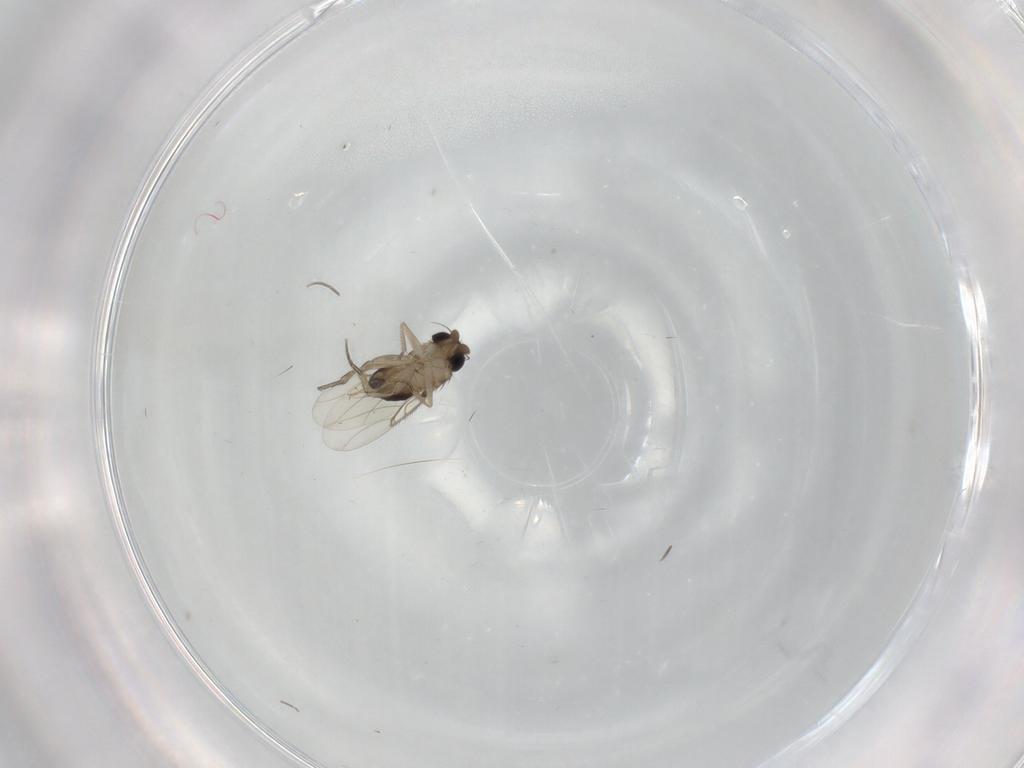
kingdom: Animalia
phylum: Arthropoda
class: Insecta
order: Diptera
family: Phoridae
